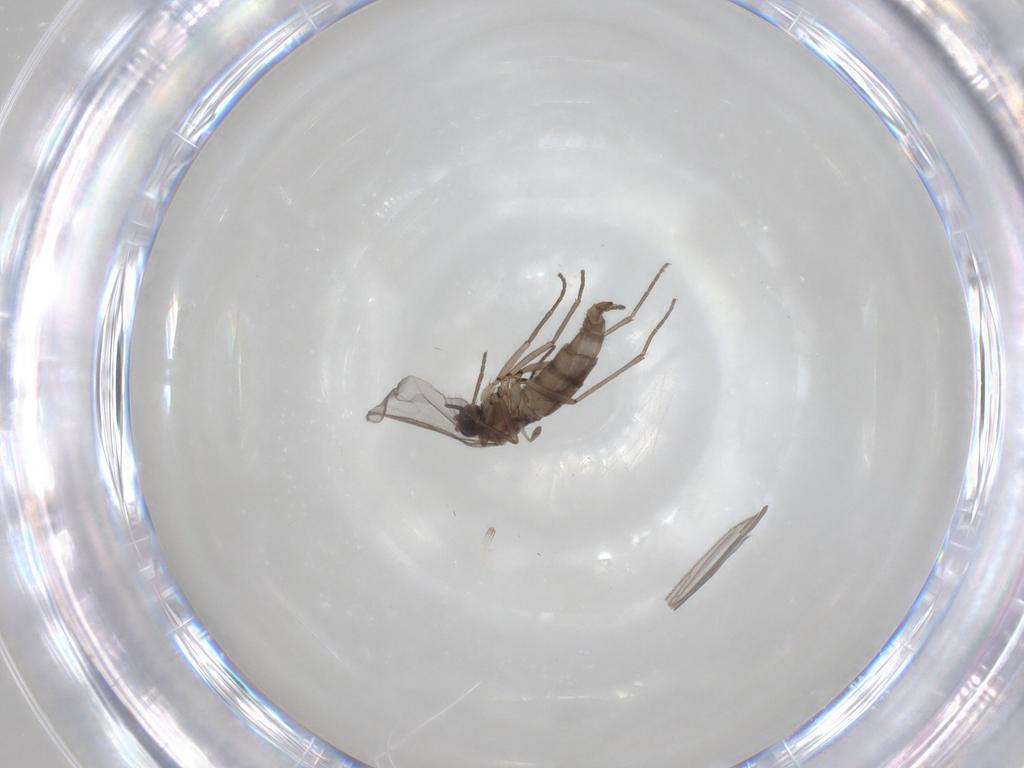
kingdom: Animalia
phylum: Arthropoda
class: Insecta
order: Diptera
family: Sciaridae
